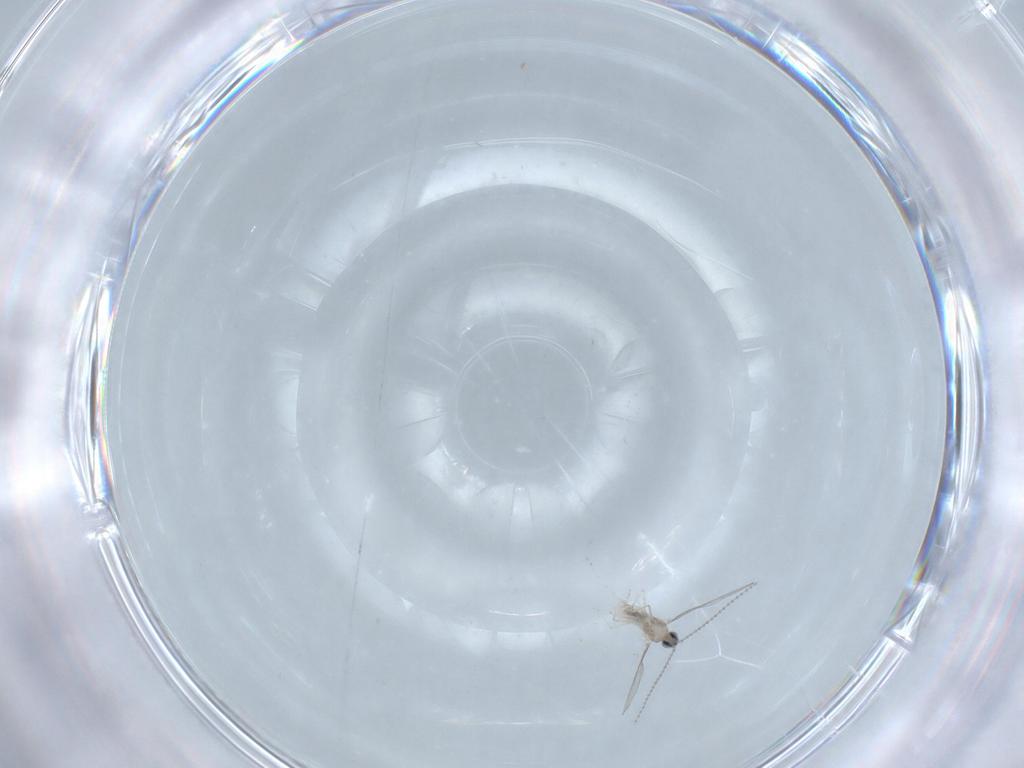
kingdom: Animalia
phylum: Arthropoda
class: Insecta
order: Diptera
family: Cecidomyiidae
